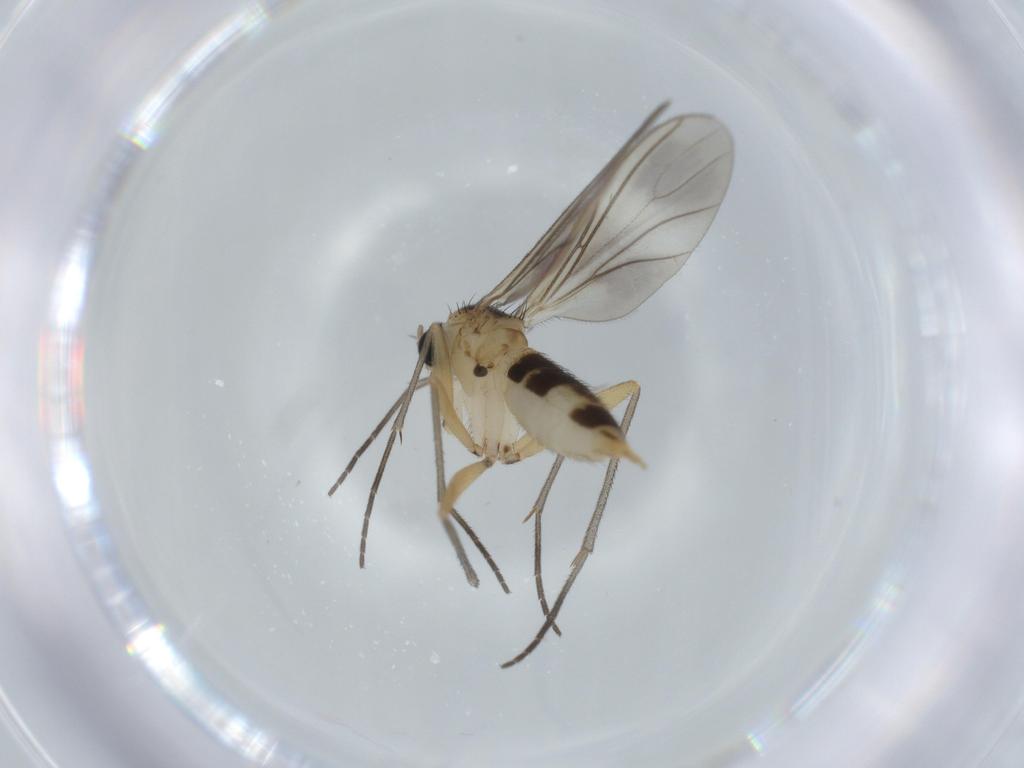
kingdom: Animalia
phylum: Arthropoda
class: Insecta
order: Diptera
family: Sciaridae
